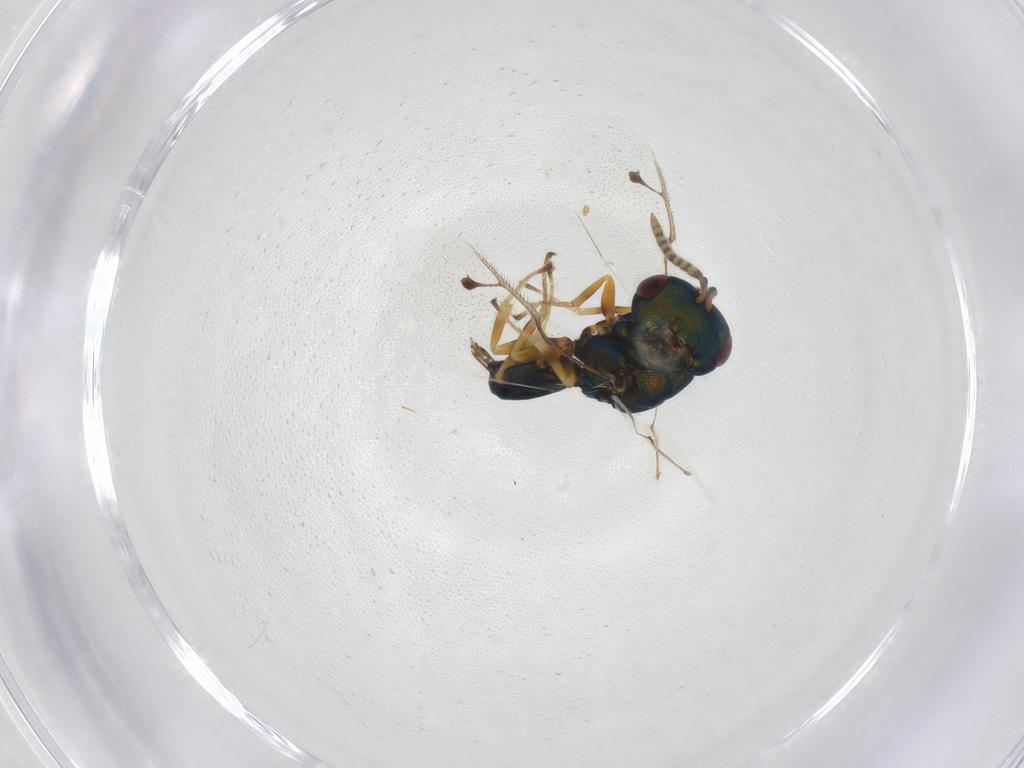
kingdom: Animalia
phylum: Arthropoda
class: Insecta
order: Hymenoptera
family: Pteromalidae
